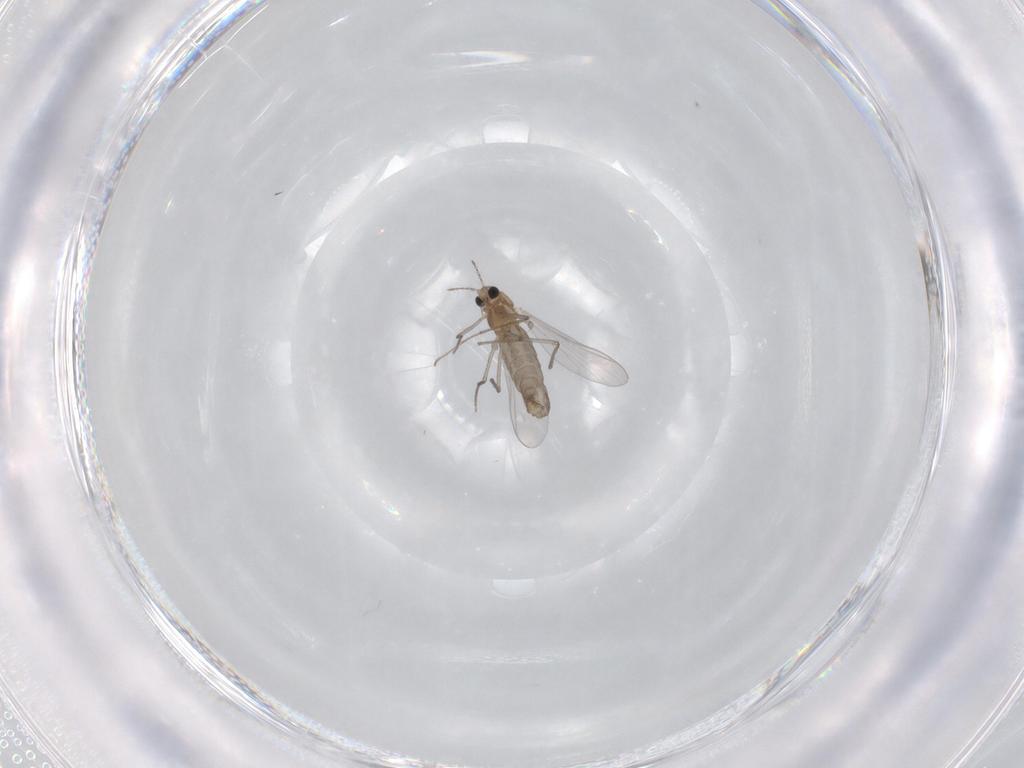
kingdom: Animalia
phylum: Arthropoda
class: Insecta
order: Diptera
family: Chironomidae
